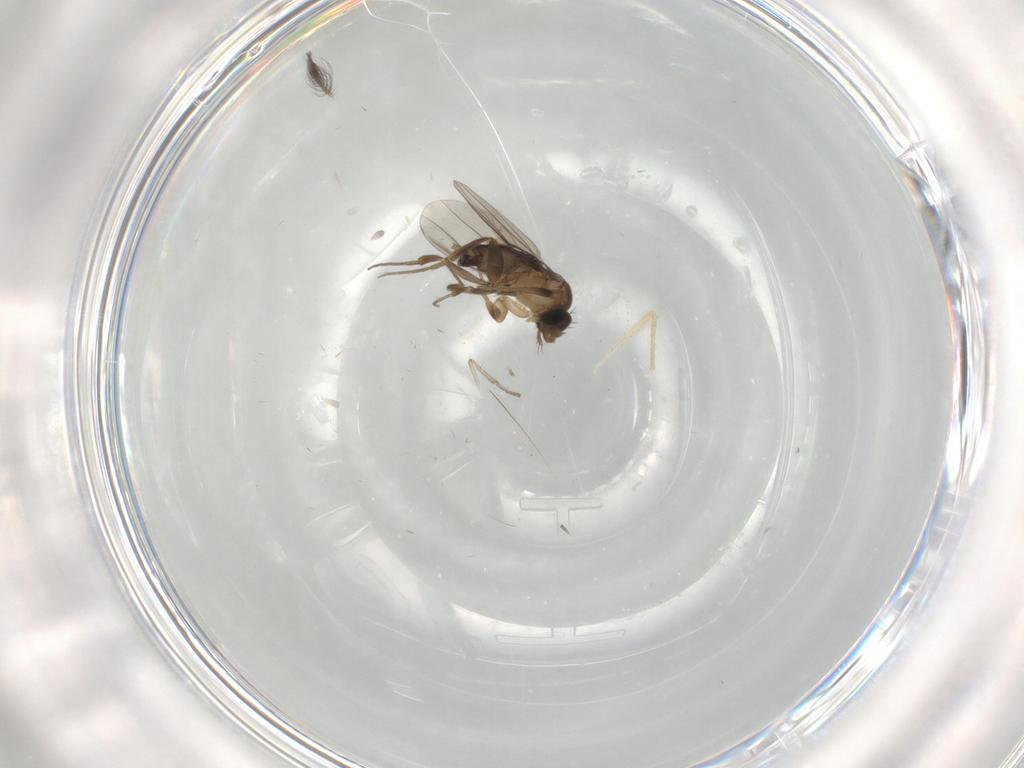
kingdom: Animalia
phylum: Arthropoda
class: Insecta
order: Diptera
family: Phoridae
